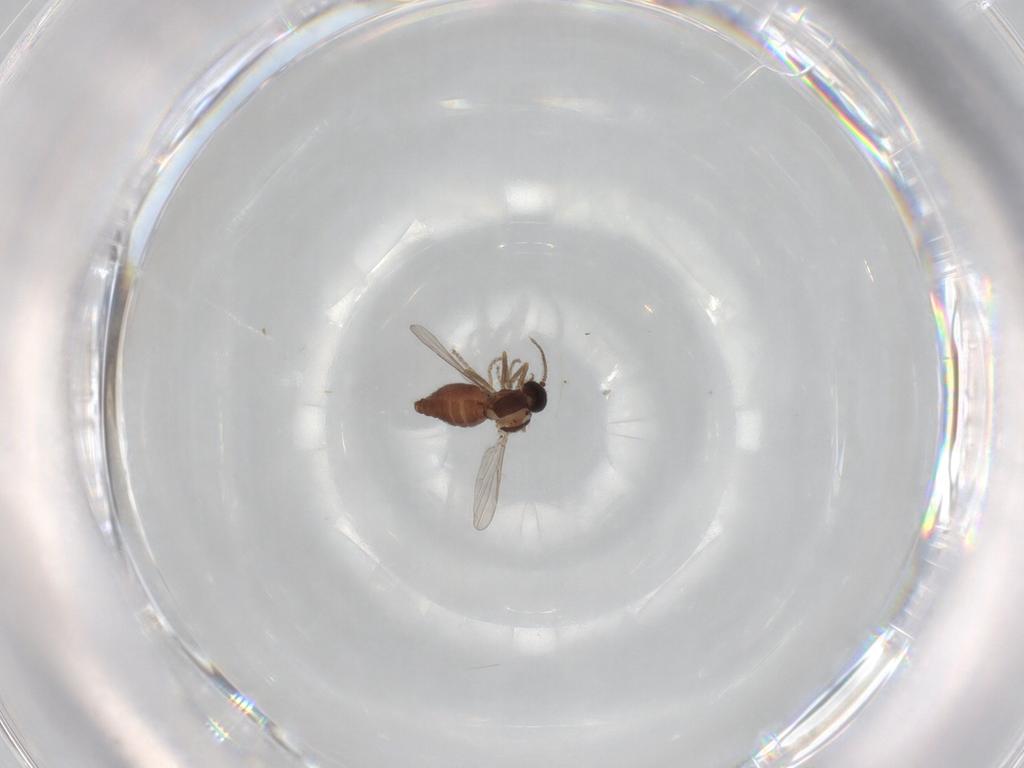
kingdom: Animalia
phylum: Arthropoda
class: Insecta
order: Diptera
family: Ceratopogonidae
